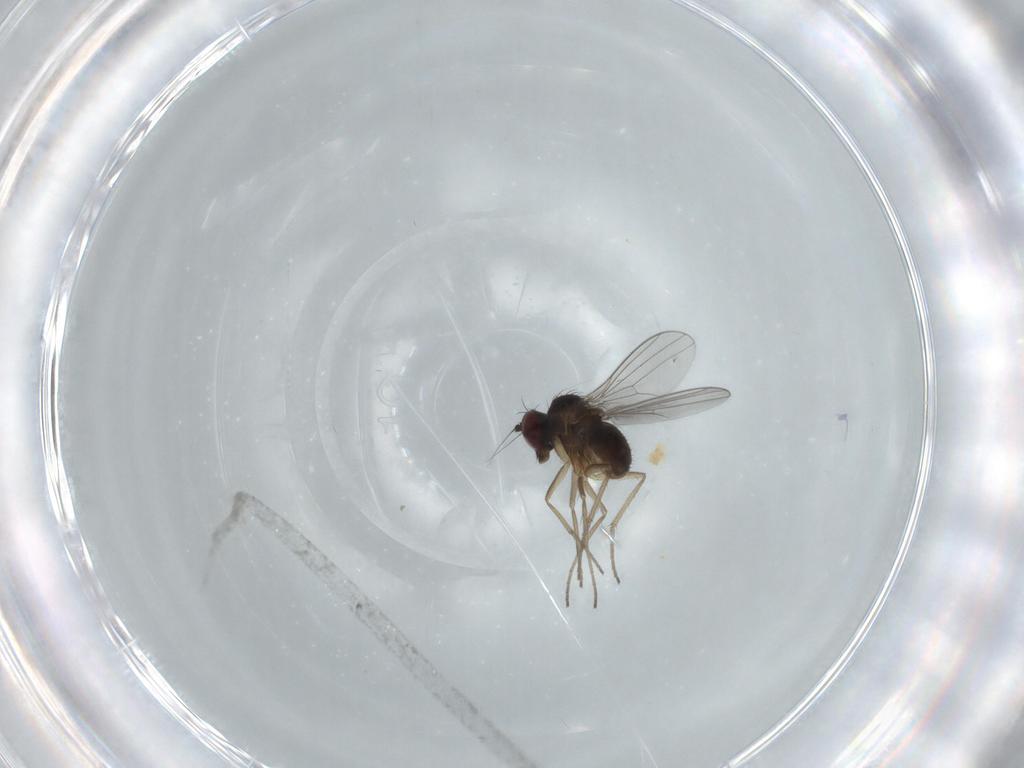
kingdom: Animalia
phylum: Arthropoda
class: Insecta
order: Diptera
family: Dolichopodidae
